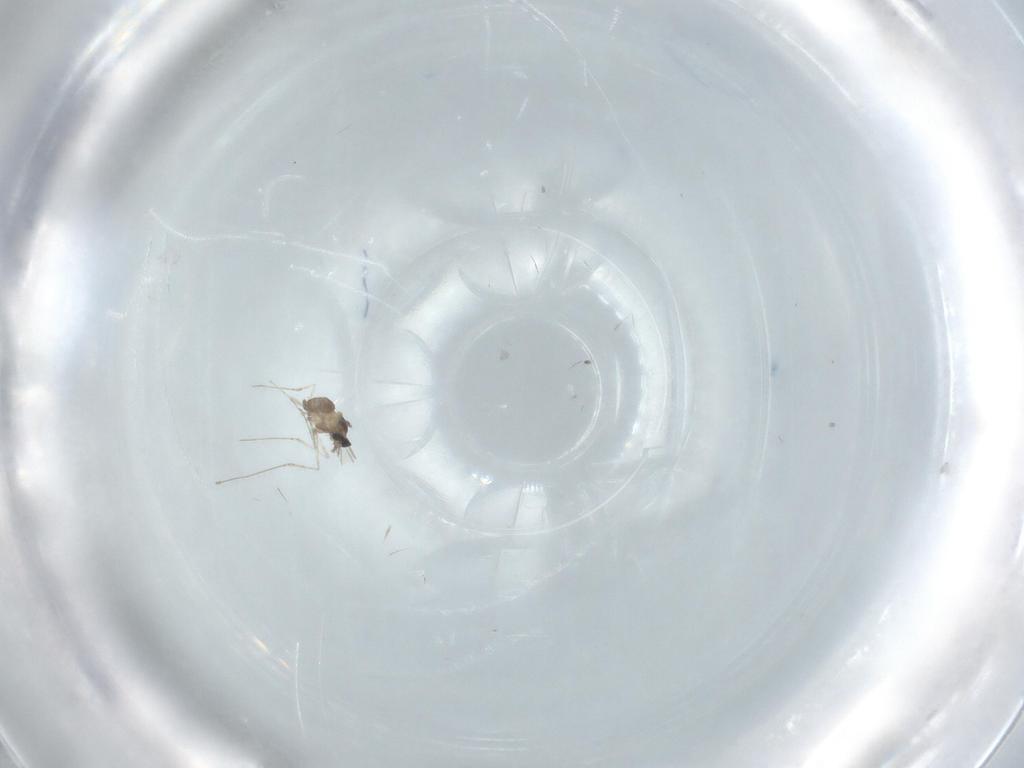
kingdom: Animalia
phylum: Arthropoda
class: Insecta
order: Diptera
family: Cecidomyiidae
